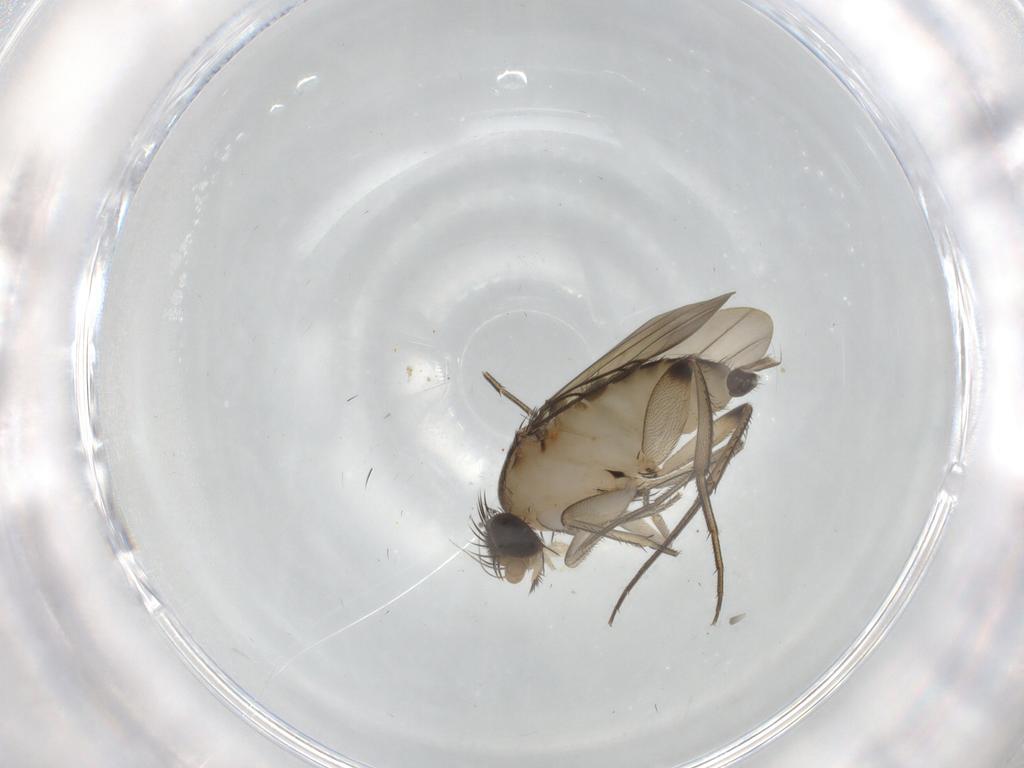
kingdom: Animalia
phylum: Arthropoda
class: Insecta
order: Diptera
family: Phoridae
